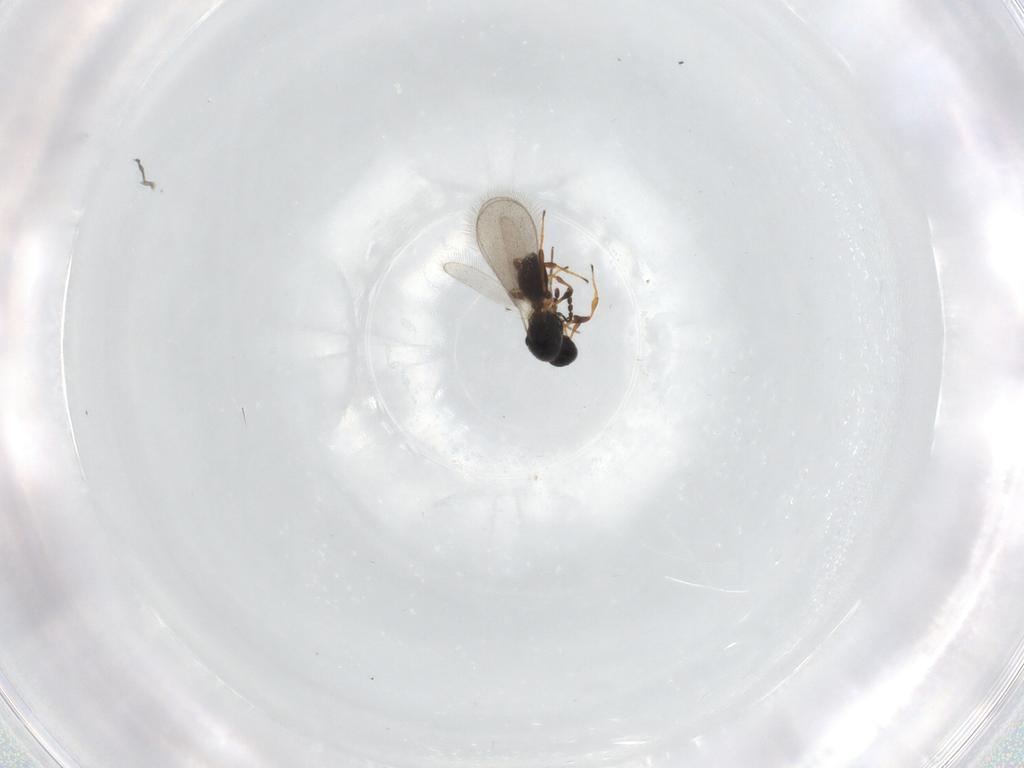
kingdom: Animalia
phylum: Arthropoda
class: Insecta
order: Hymenoptera
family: Platygastridae
